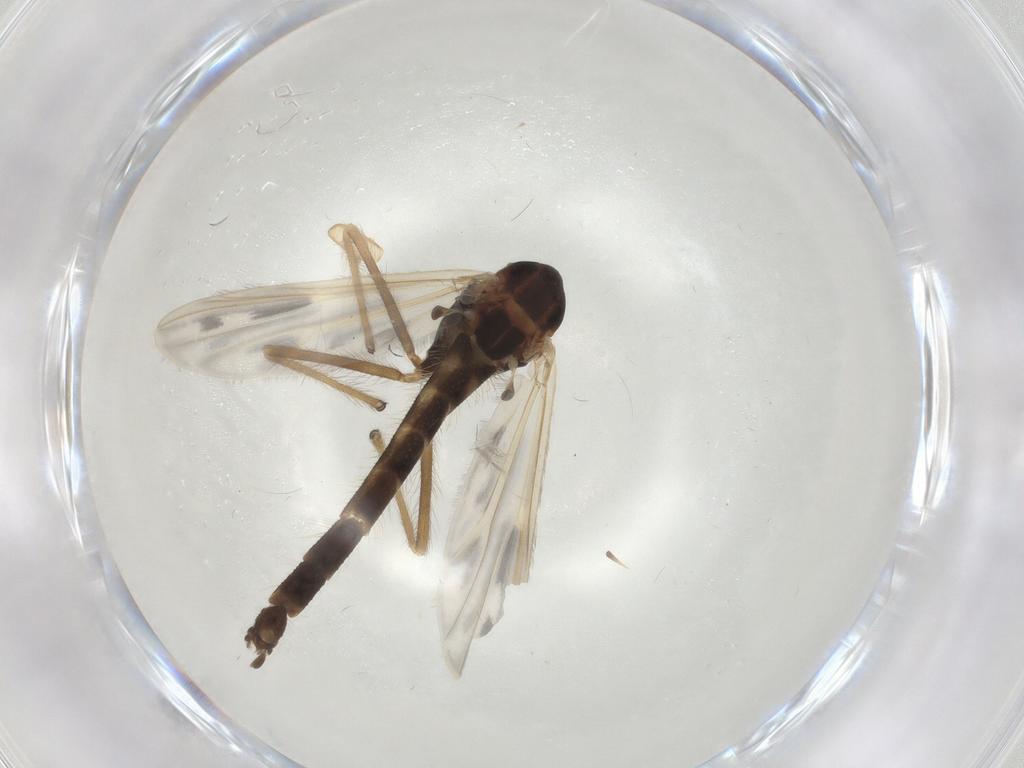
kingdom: Animalia
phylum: Arthropoda
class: Insecta
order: Diptera
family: Chironomidae
